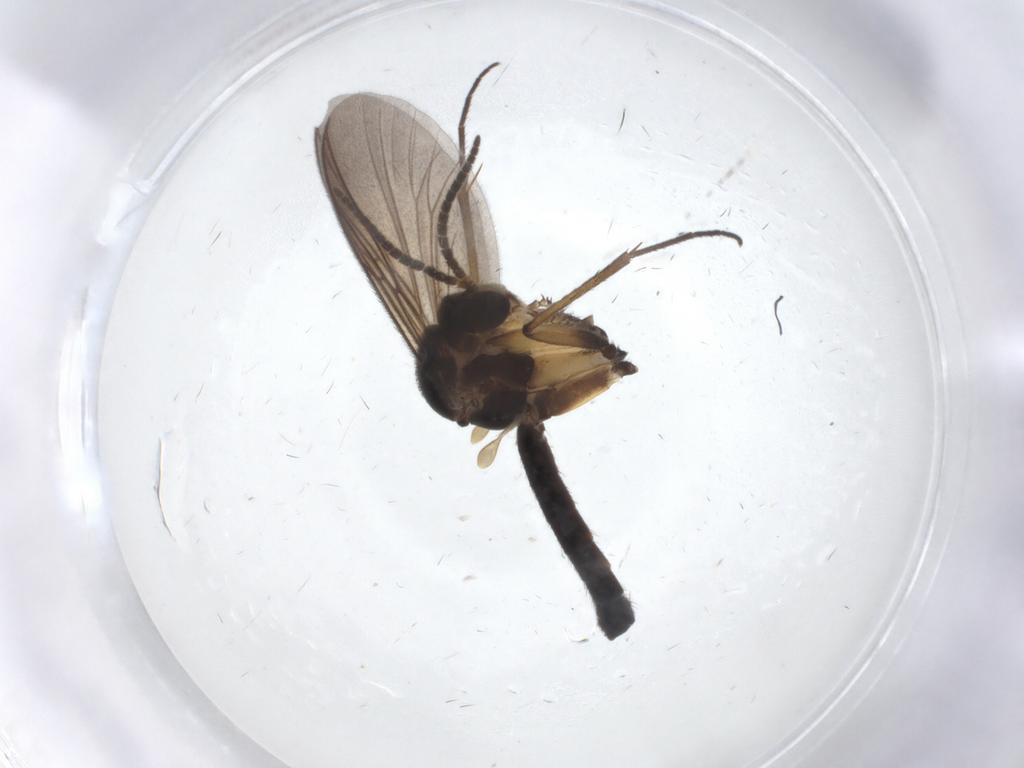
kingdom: Animalia
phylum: Arthropoda
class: Insecta
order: Diptera
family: Mycetophilidae
